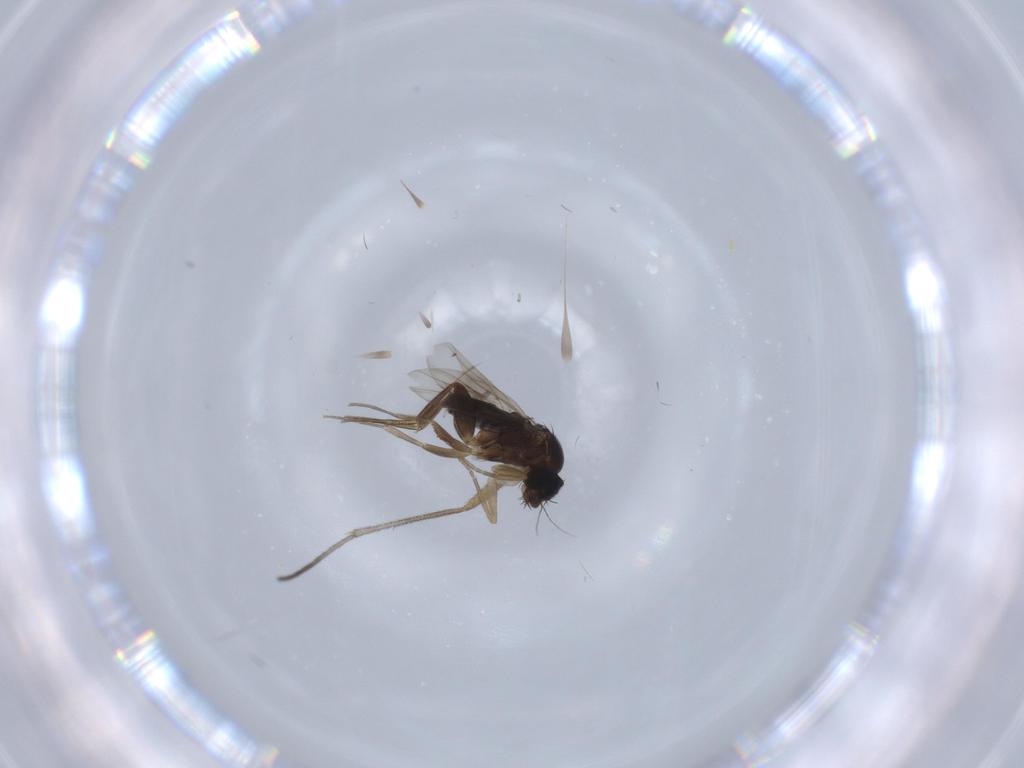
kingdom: Animalia
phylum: Arthropoda
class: Insecta
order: Diptera
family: Phoridae
